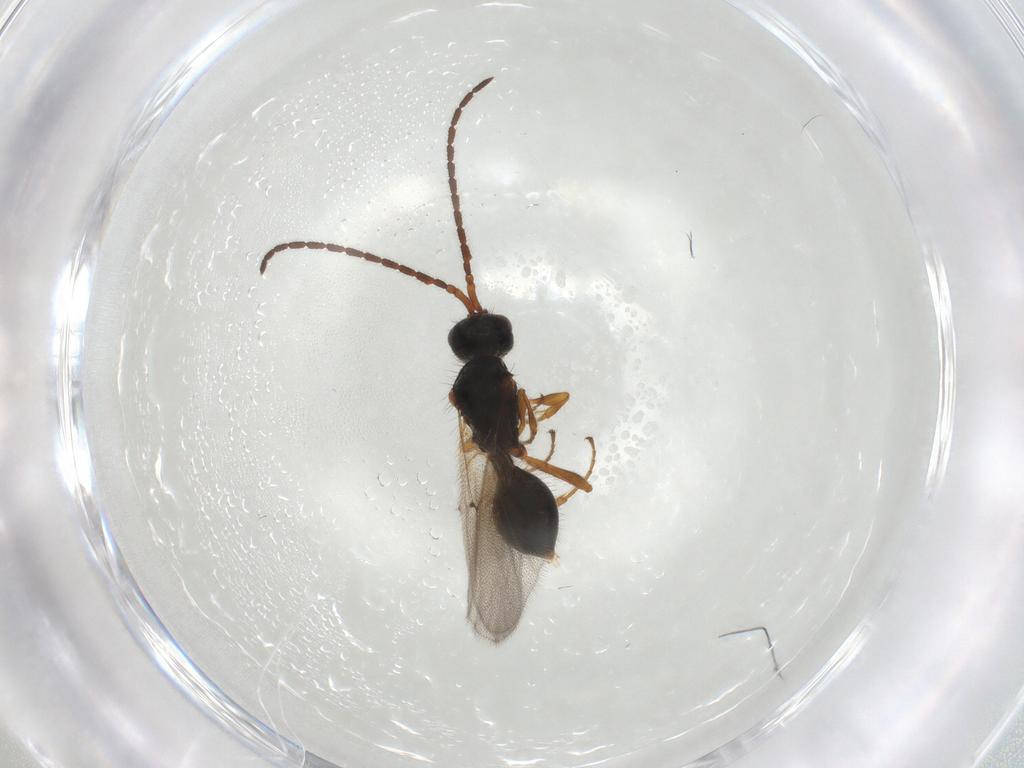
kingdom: Animalia
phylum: Arthropoda
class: Insecta
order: Hymenoptera
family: Diapriidae
